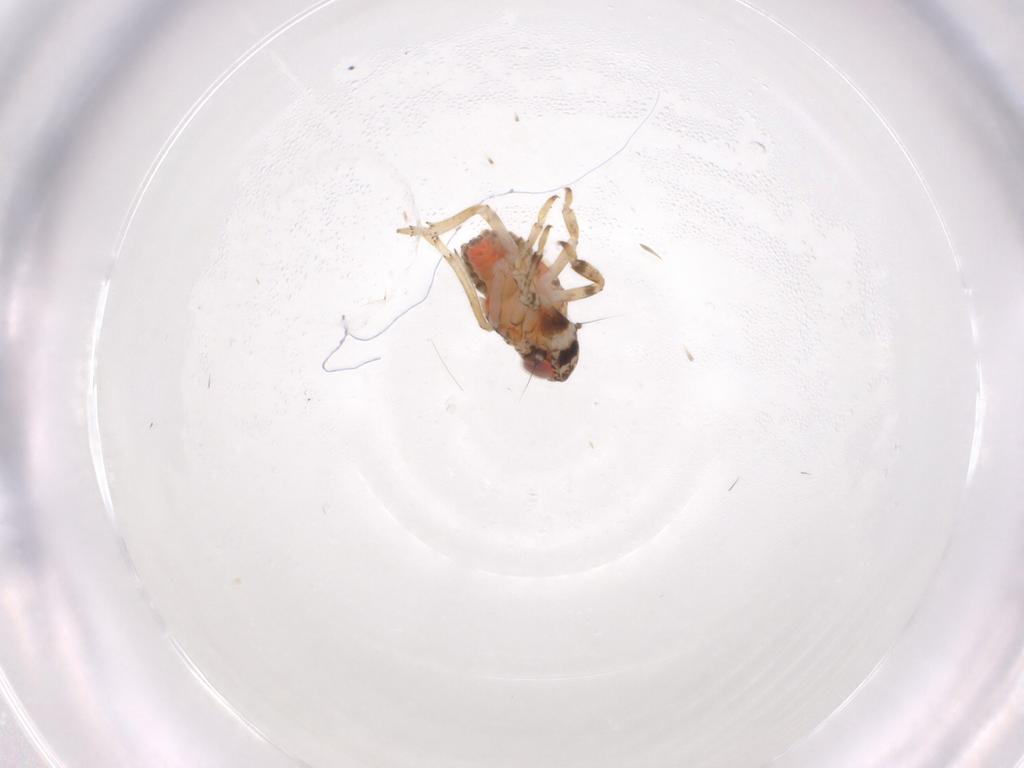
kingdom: Animalia
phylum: Arthropoda
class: Insecta
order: Hemiptera
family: Issidae
